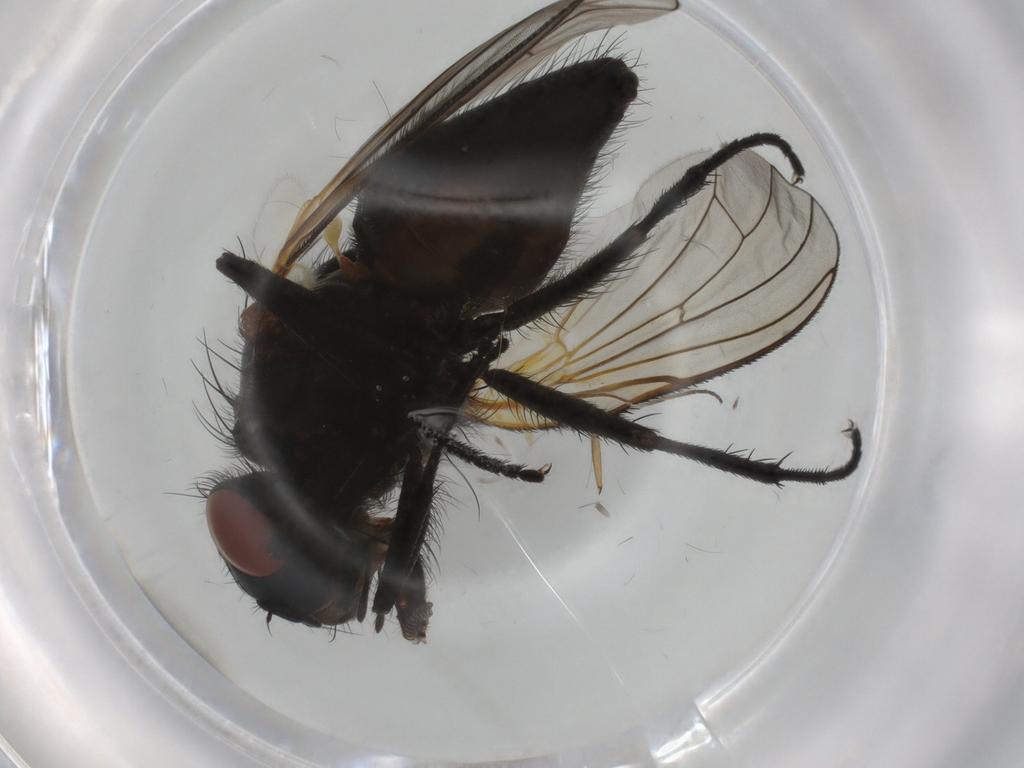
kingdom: Animalia
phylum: Arthropoda
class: Insecta
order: Diptera
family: Anthomyiidae
